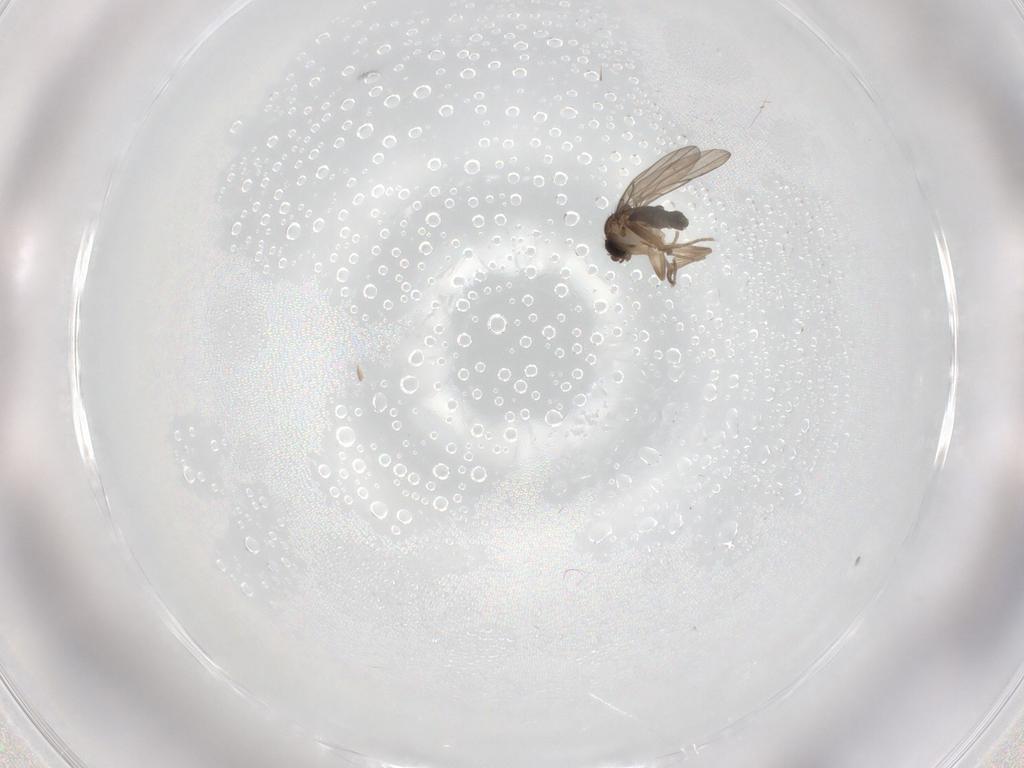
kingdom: Animalia
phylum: Arthropoda
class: Insecta
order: Diptera
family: Phoridae
